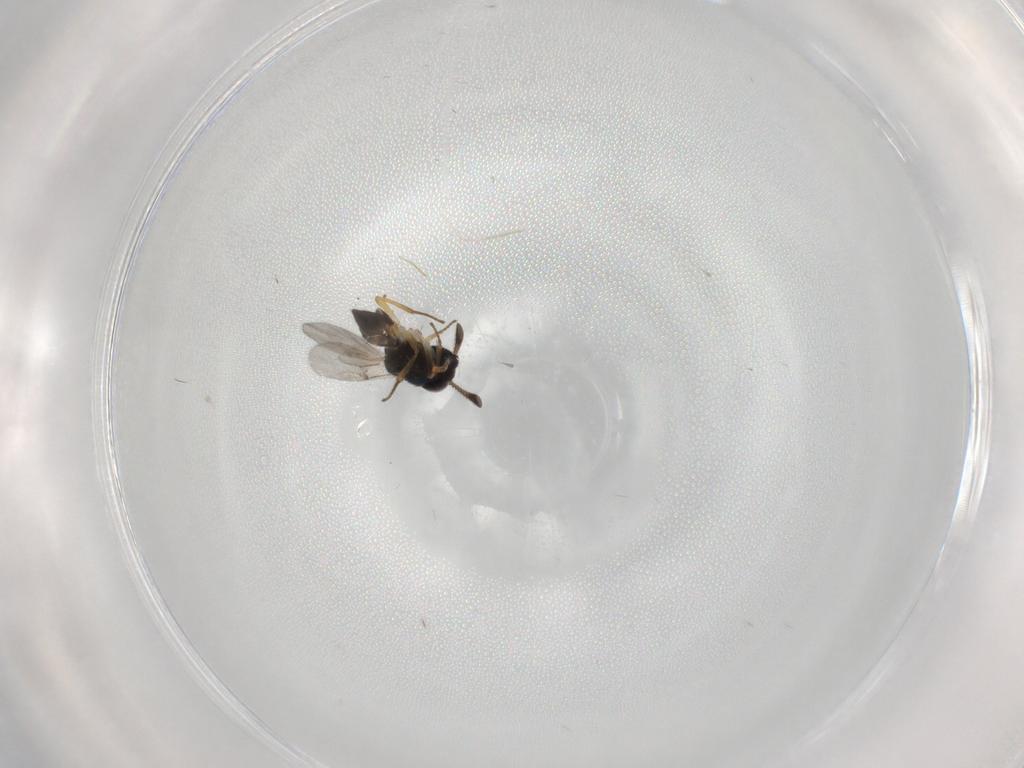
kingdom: Animalia
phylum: Arthropoda
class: Insecta
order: Hymenoptera
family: Encyrtidae
